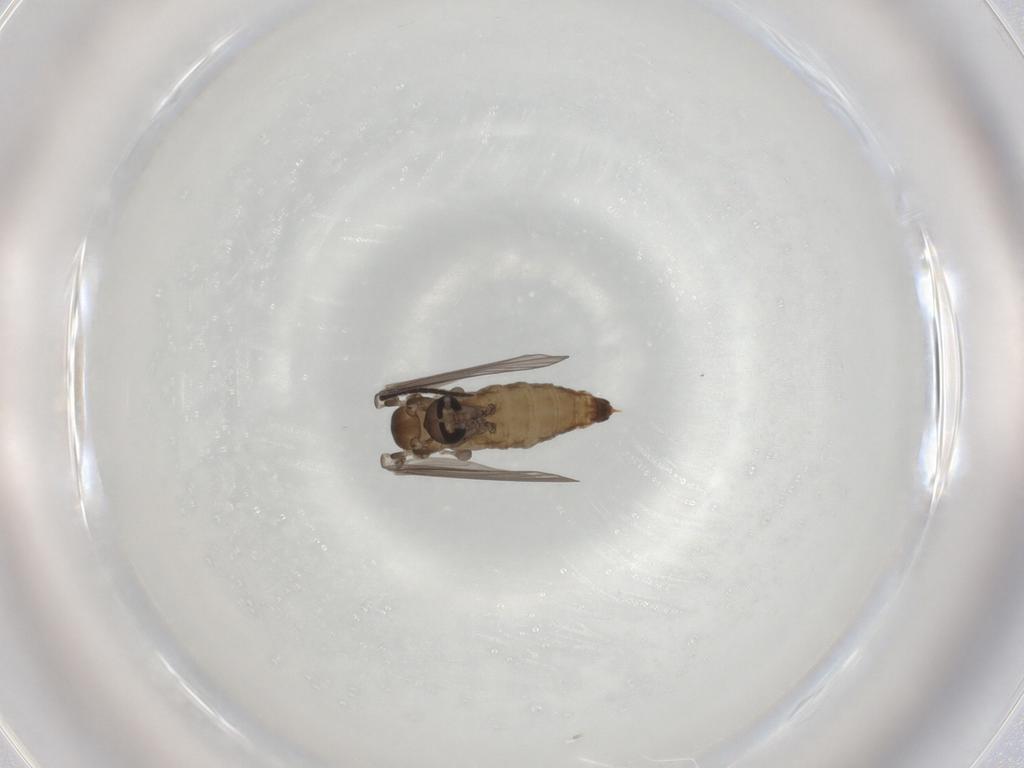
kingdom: Animalia
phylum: Arthropoda
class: Insecta
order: Diptera
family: Psychodidae
